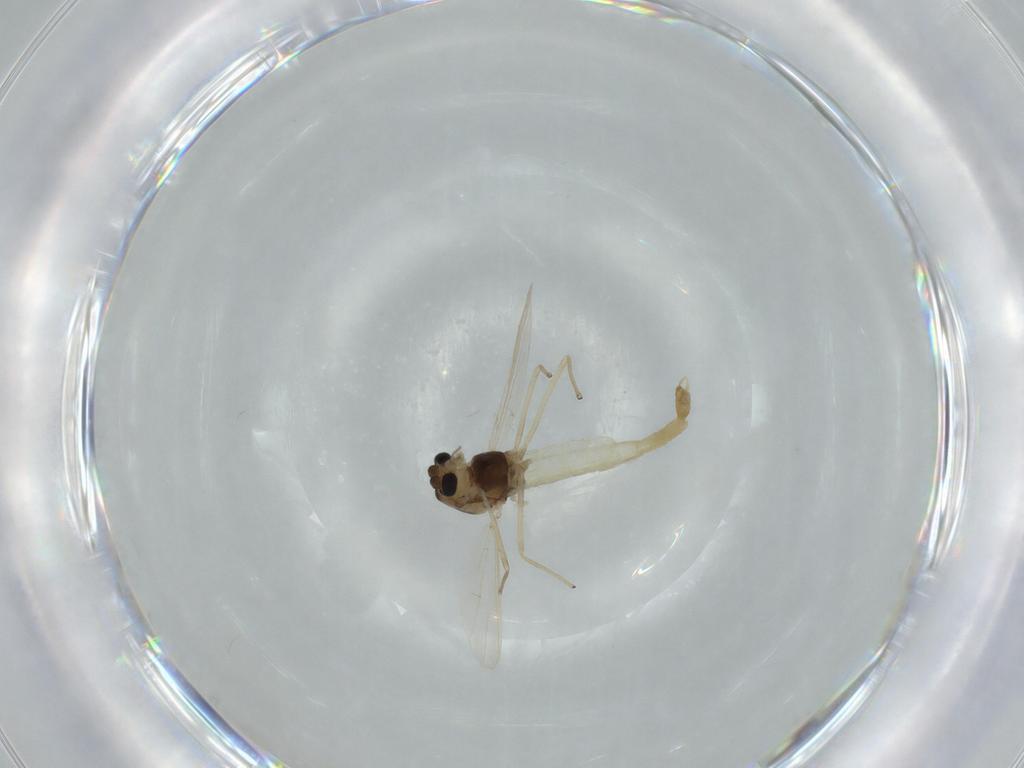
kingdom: Animalia
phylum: Arthropoda
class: Insecta
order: Diptera
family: Chironomidae
